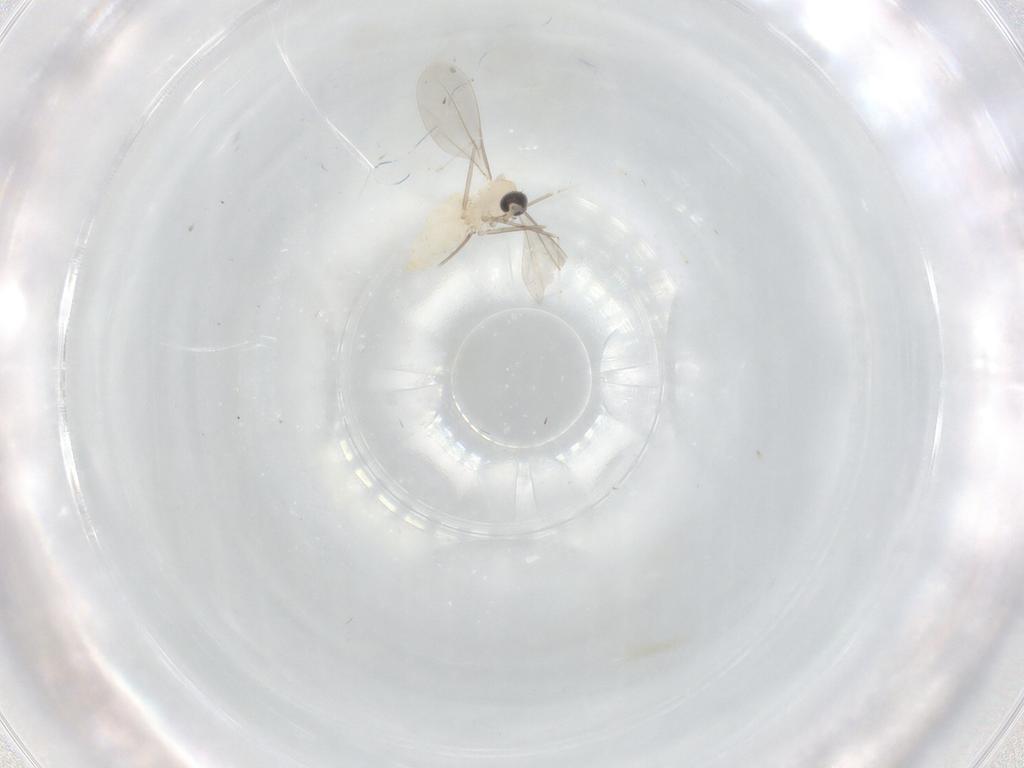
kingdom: Animalia
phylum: Arthropoda
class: Insecta
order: Diptera
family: Cecidomyiidae
